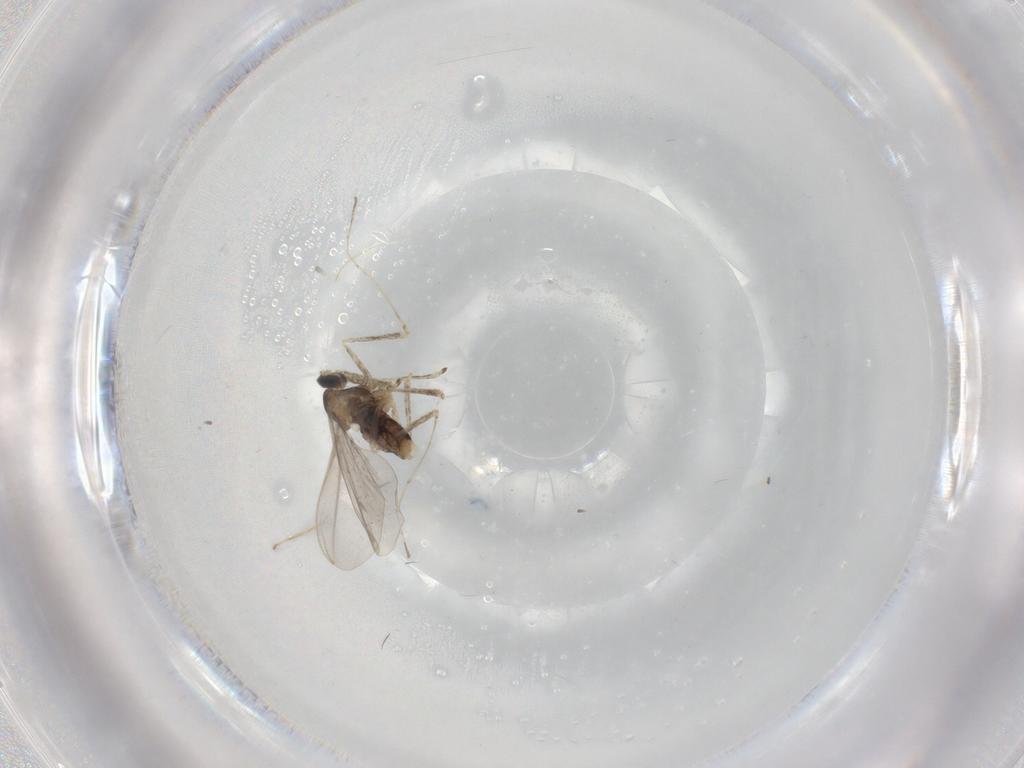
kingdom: Animalia
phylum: Arthropoda
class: Insecta
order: Diptera
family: Cecidomyiidae
